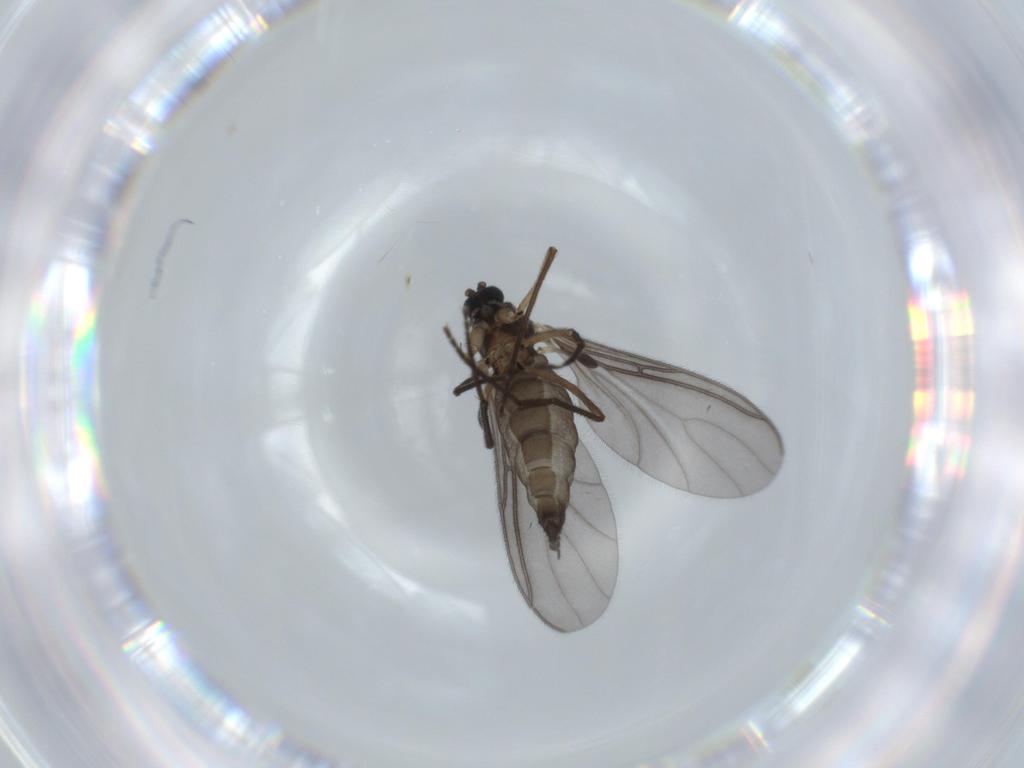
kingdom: Animalia
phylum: Arthropoda
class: Insecta
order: Diptera
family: Sciaridae
